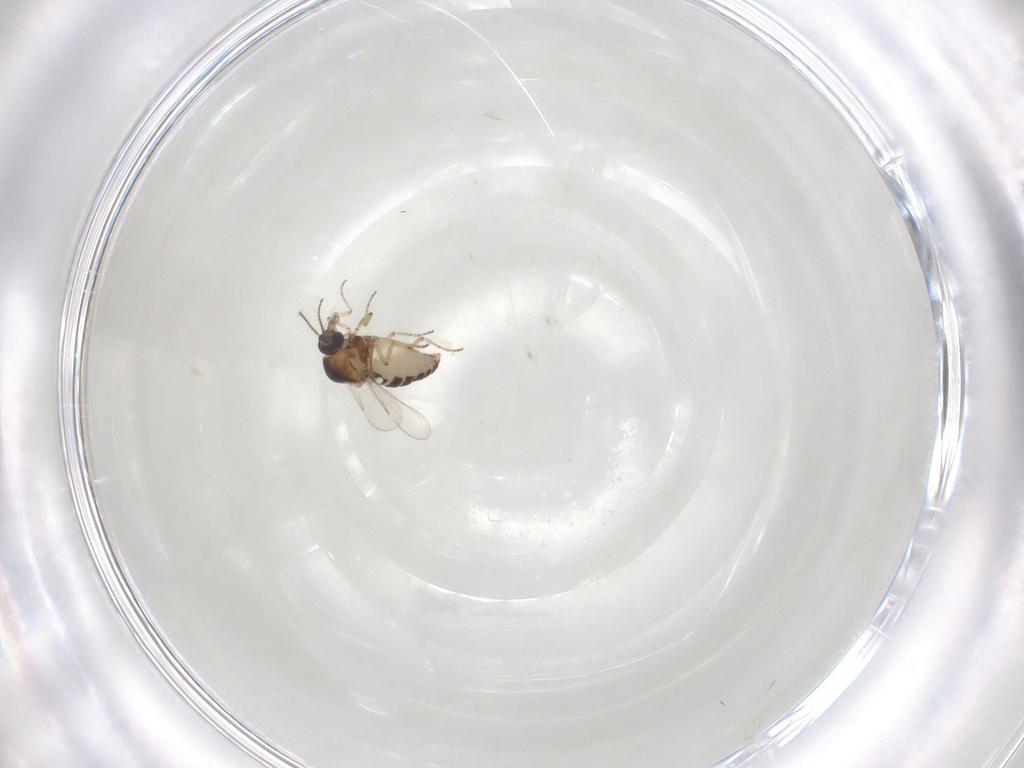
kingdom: Animalia
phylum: Arthropoda
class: Insecta
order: Diptera
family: Ceratopogonidae
